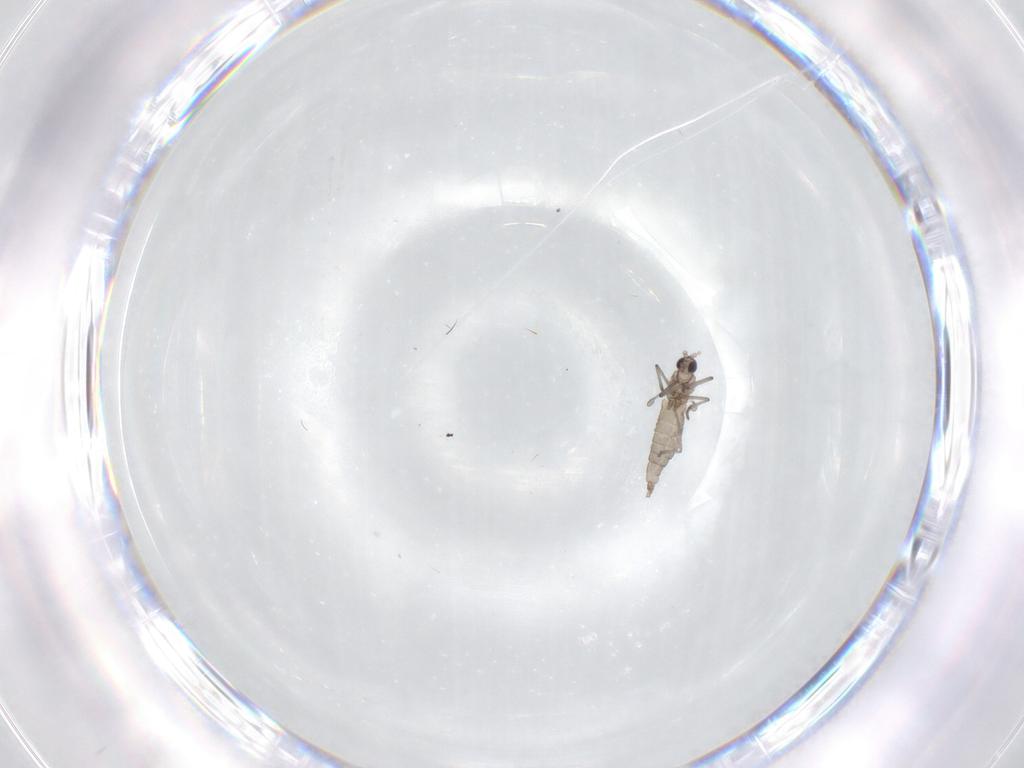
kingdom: Animalia
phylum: Arthropoda
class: Insecta
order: Diptera
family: Cecidomyiidae
